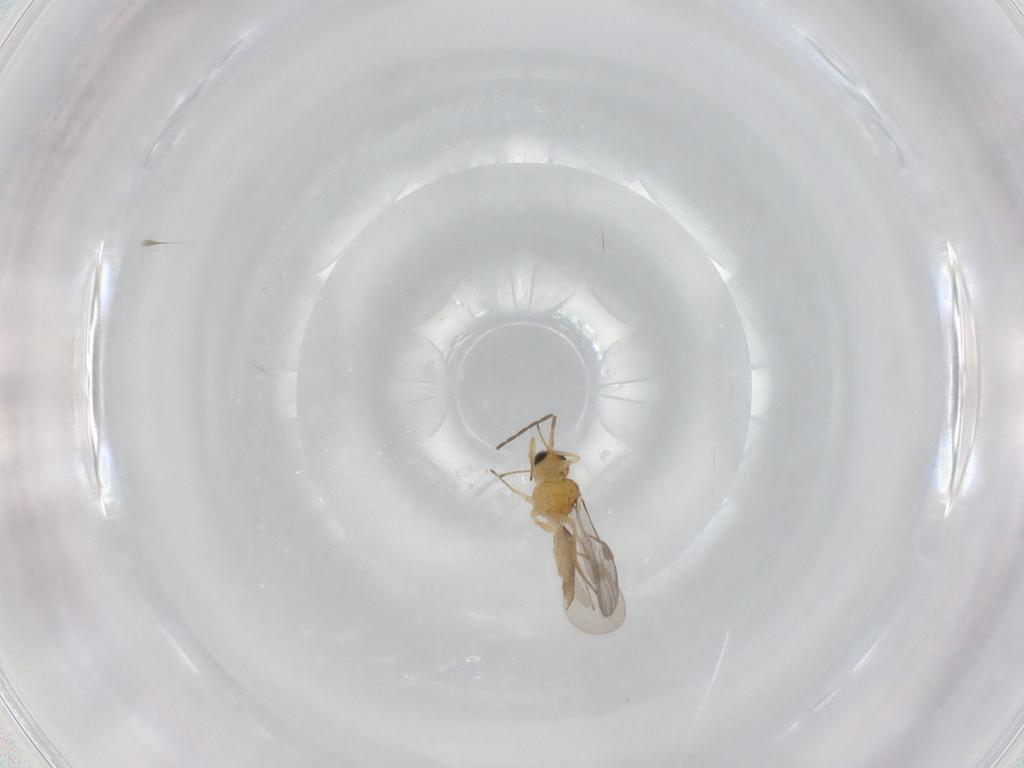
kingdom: Animalia
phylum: Arthropoda
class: Insecta
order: Hymenoptera
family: Braconidae
